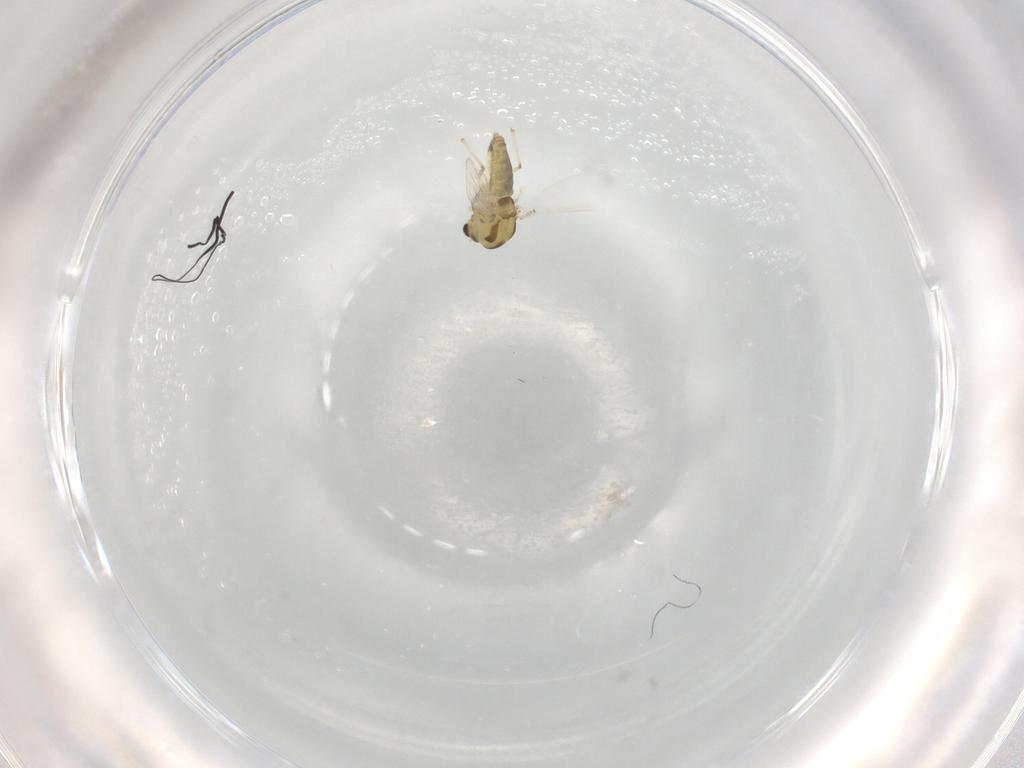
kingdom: Animalia
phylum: Arthropoda
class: Insecta
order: Diptera
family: Chironomidae
